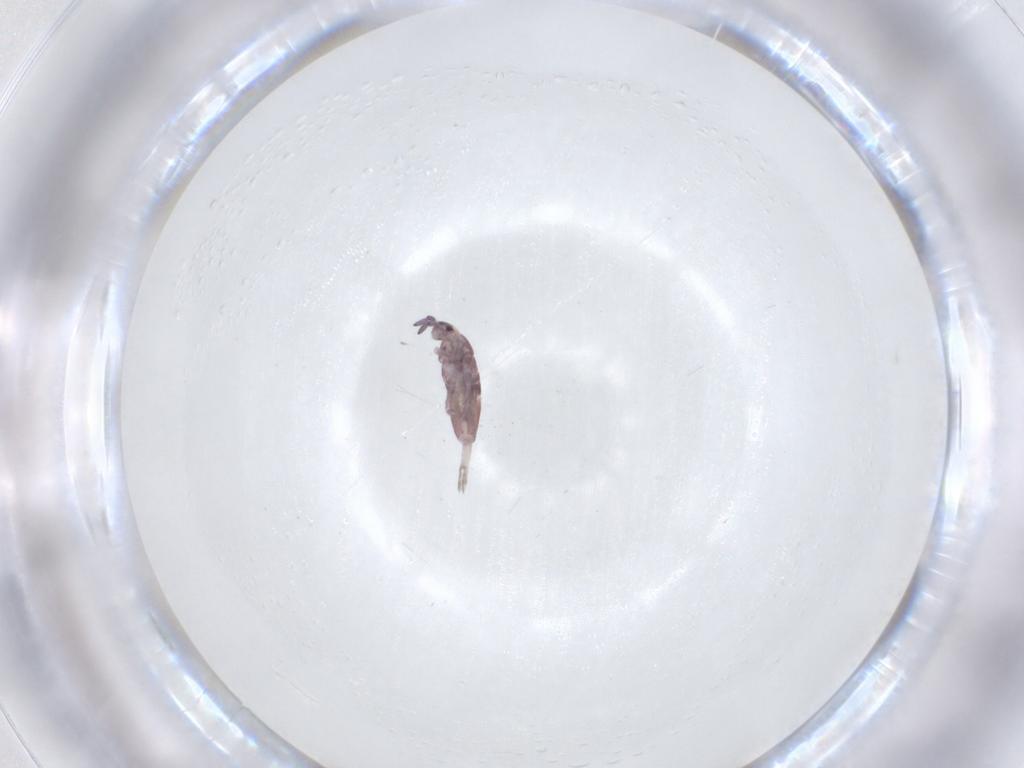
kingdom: Animalia
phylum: Arthropoda
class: Collembola
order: Entomobryomorpha
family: Entomobryidae
